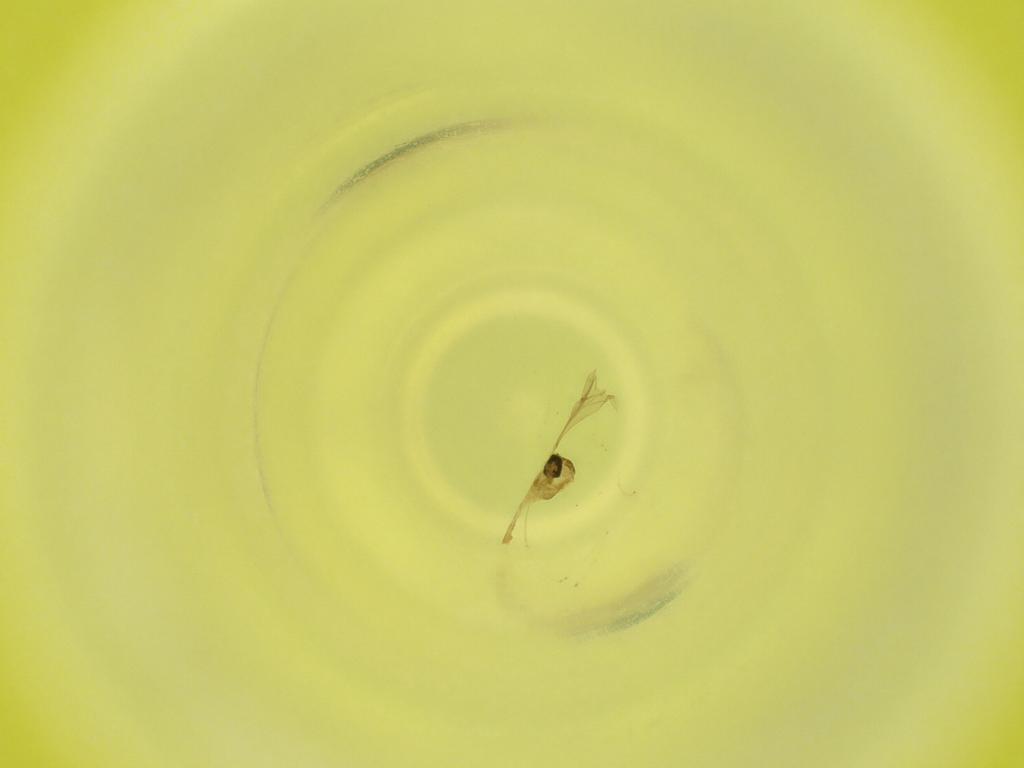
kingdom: Animalia
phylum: Arthropoda
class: Insecta
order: Diptera
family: Cecidomyiidae
